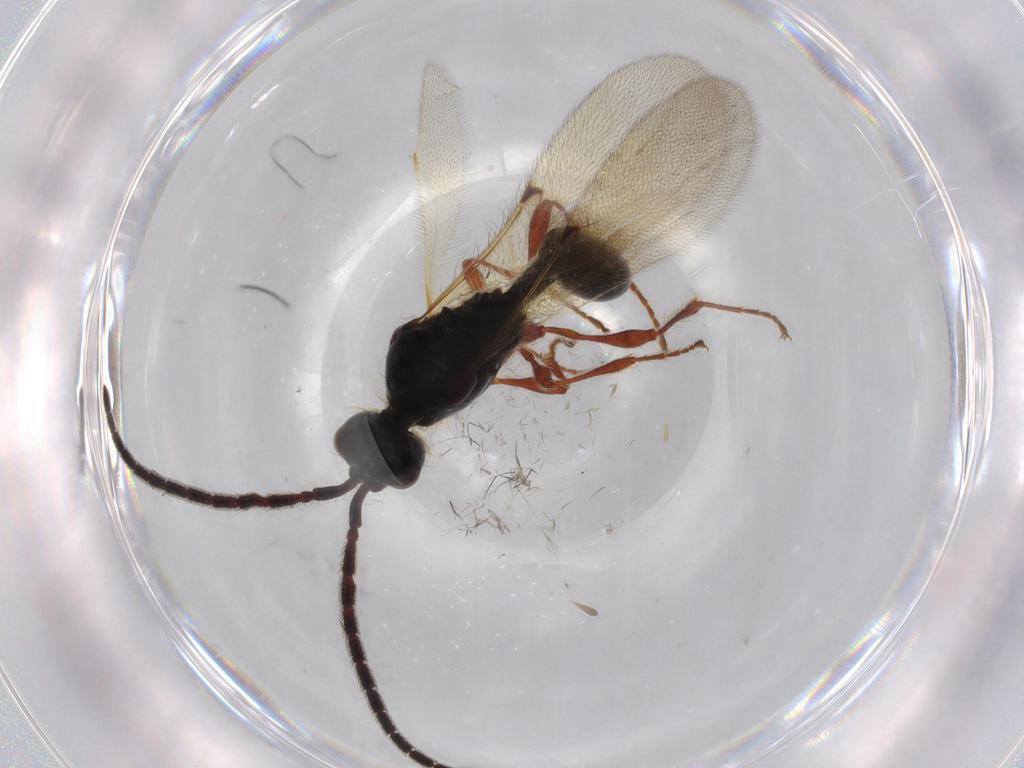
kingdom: Animalia
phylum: Arthropoda
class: Insecta
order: Hymenoptera
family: Diapriidae
